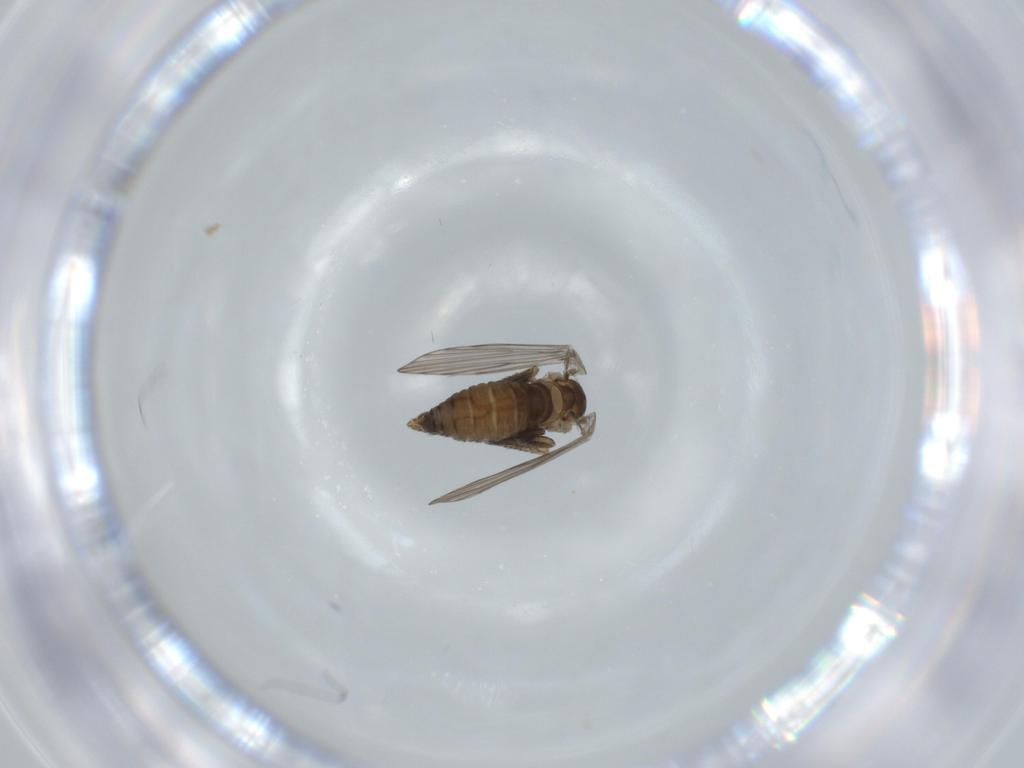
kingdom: Animalia
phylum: Arthropoda
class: Insecta
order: Diptera
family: Psychodidae
